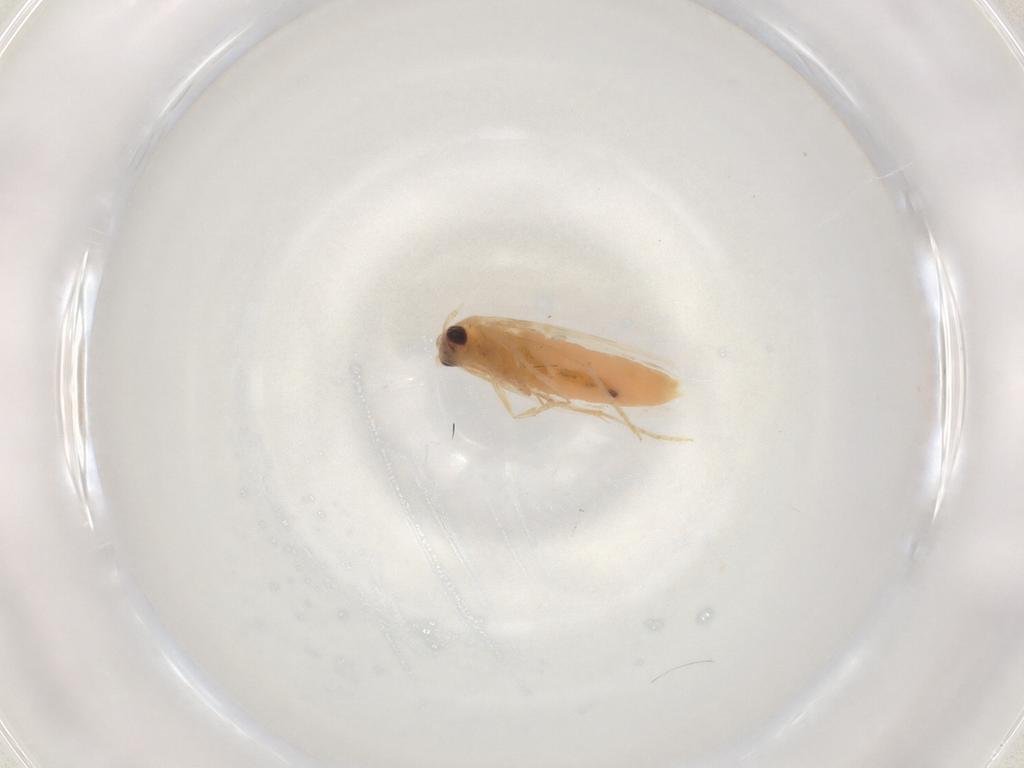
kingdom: Animalia
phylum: Arthropoda
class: Insecta
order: Lepidoptera
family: Bucculatricidae
